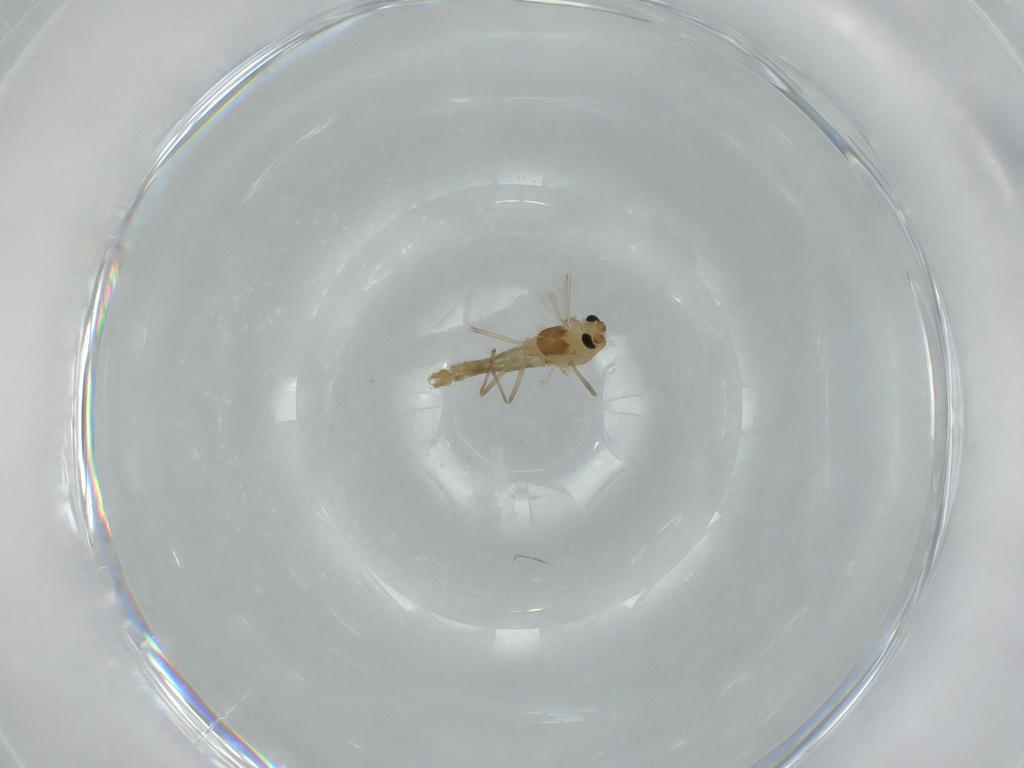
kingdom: Animalia
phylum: Arthropoda
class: Insecta
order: Diptera
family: Chironomidae
